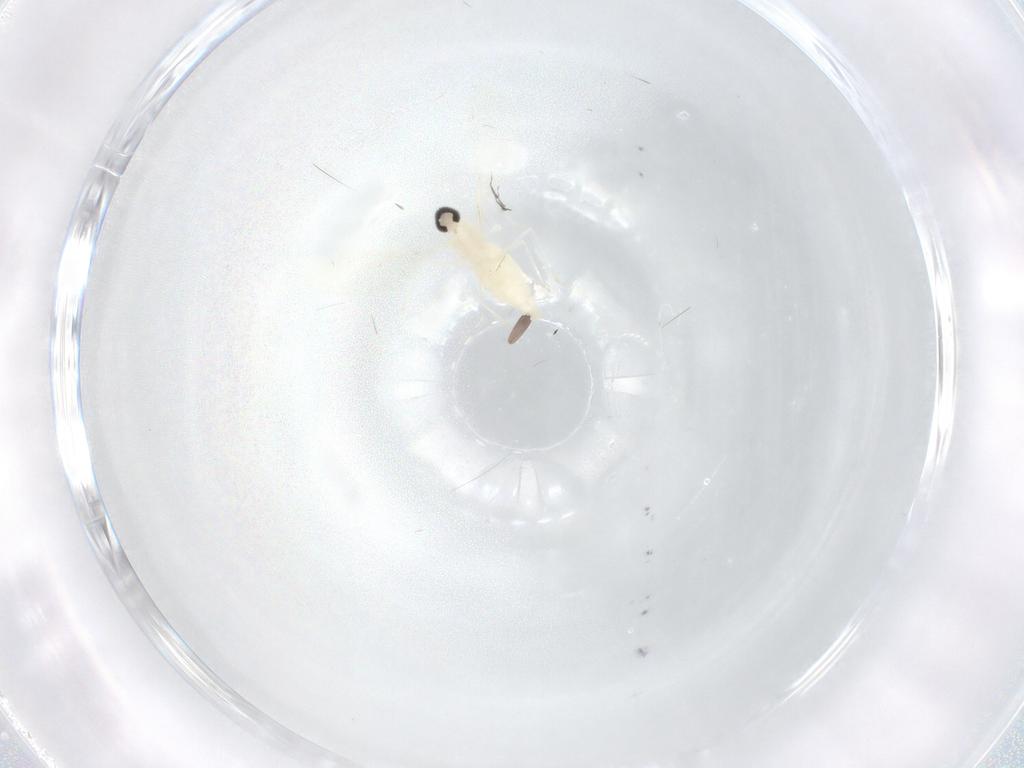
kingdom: Animalia
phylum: Arthropoda
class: Insecta
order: Diptera
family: Cecidomyiidae
